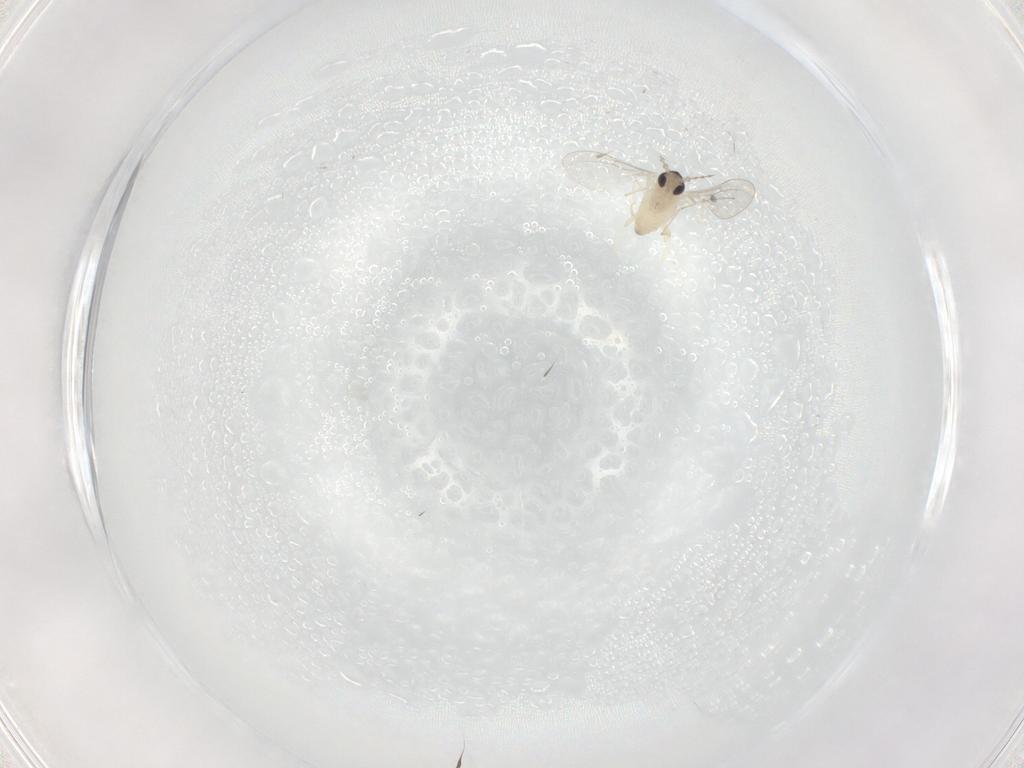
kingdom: Animalia
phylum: Arthropoda
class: Insecta
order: Diptera
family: Cecidomyiidae
